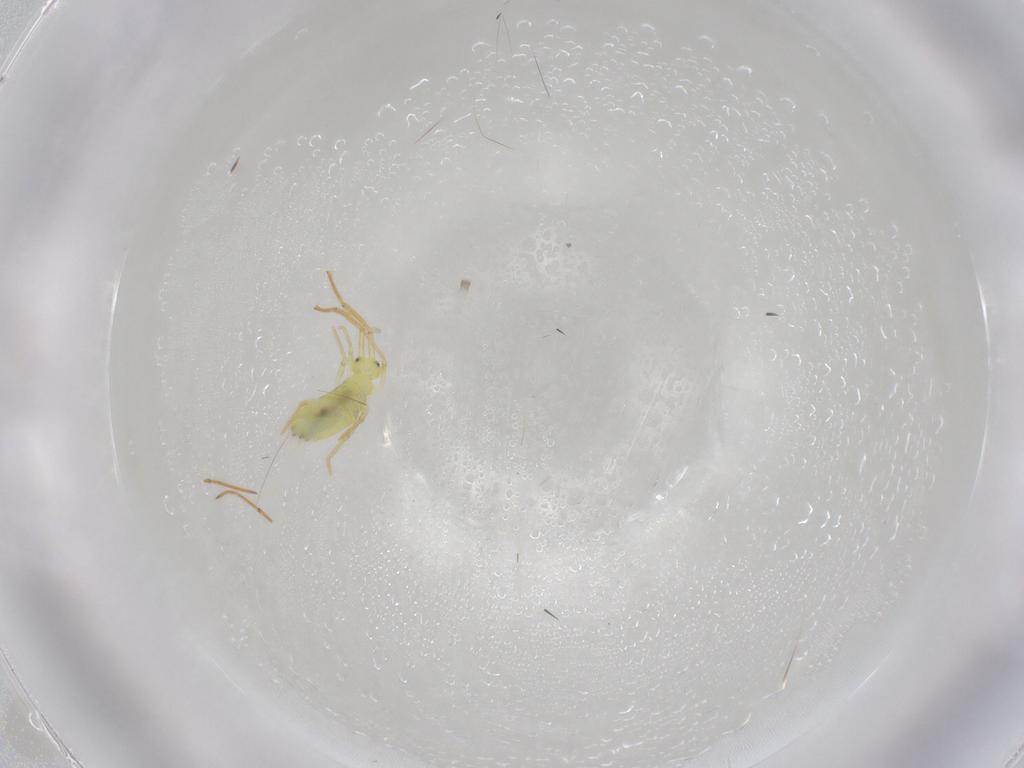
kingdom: Animalia
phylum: Arthropoda
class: Collembola
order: Entomobryomorpha
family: Entomobryidae
